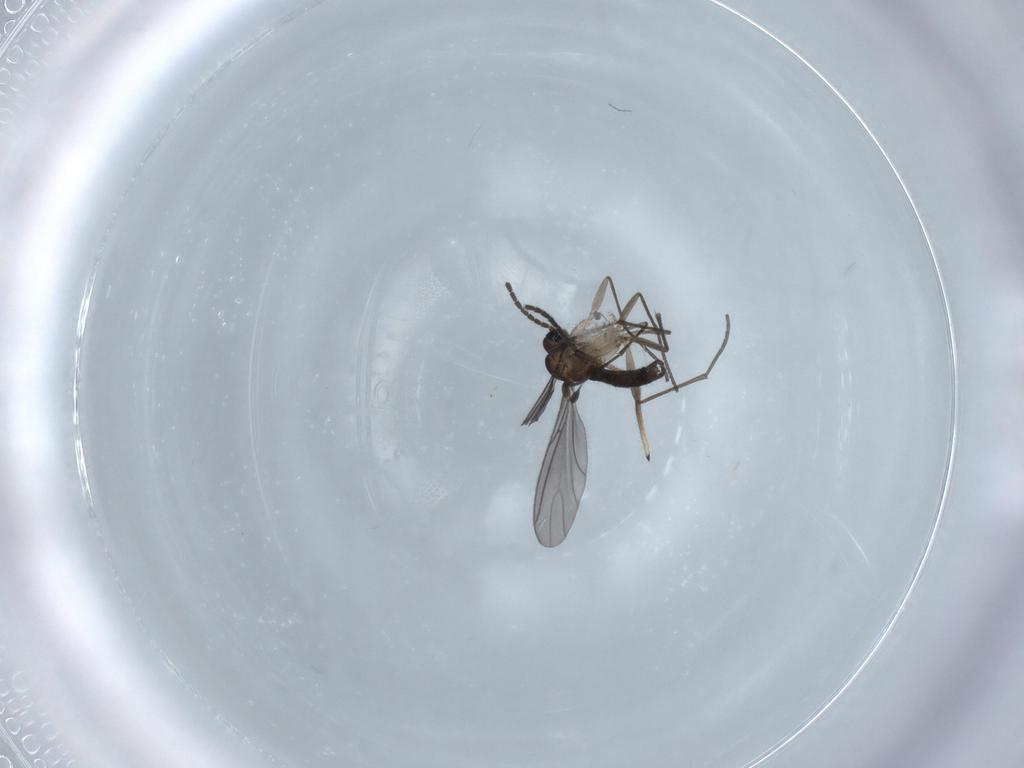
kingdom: Animalia
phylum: Arthropoda
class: Insecta
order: Diptera
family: Sciaridae
